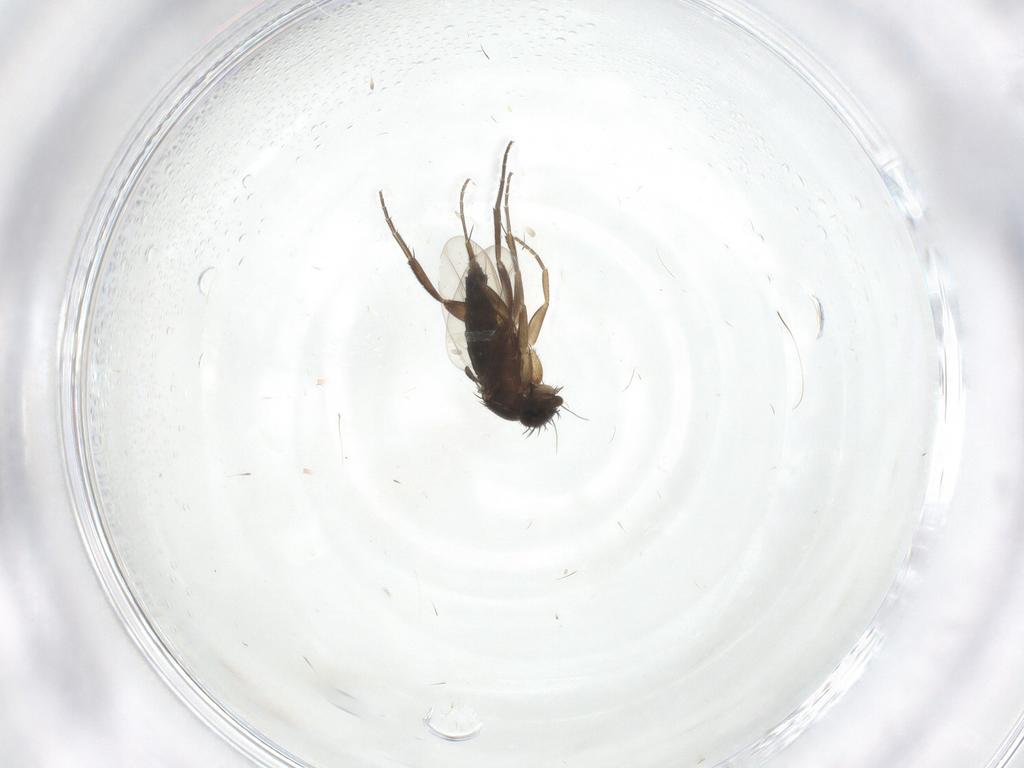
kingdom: Animalia
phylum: Arthropoda
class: Insecta
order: Diptera
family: Phoridae
